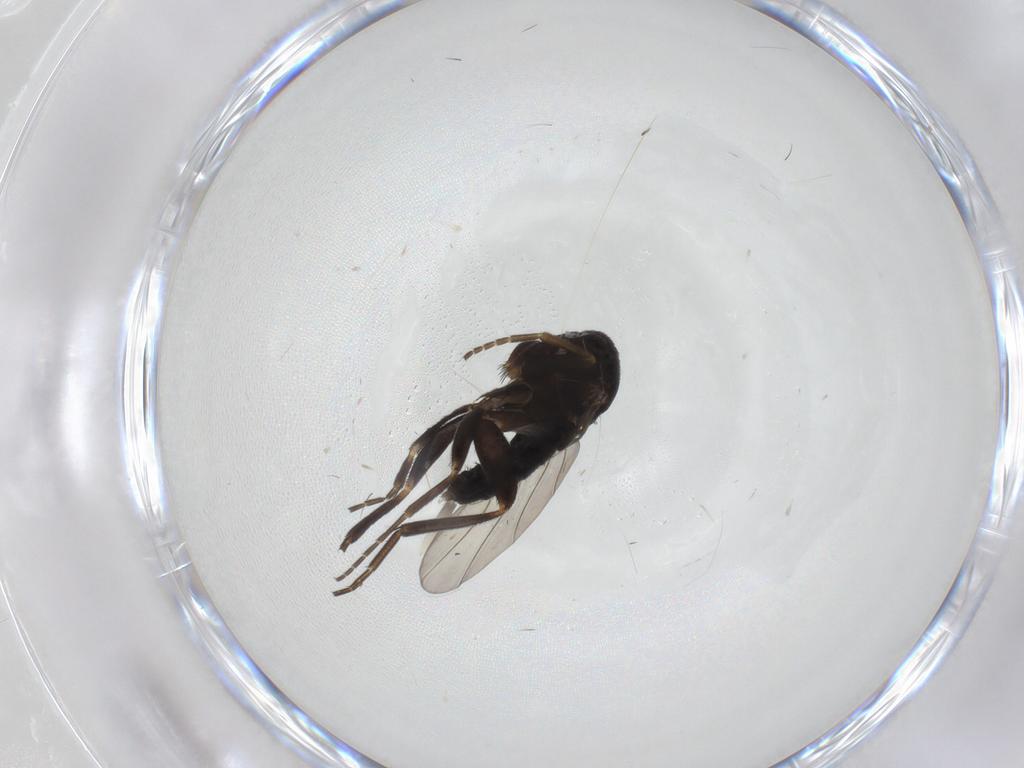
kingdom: Animalia
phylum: Arthropoda
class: Insecta
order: Diptera
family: Phoridae
